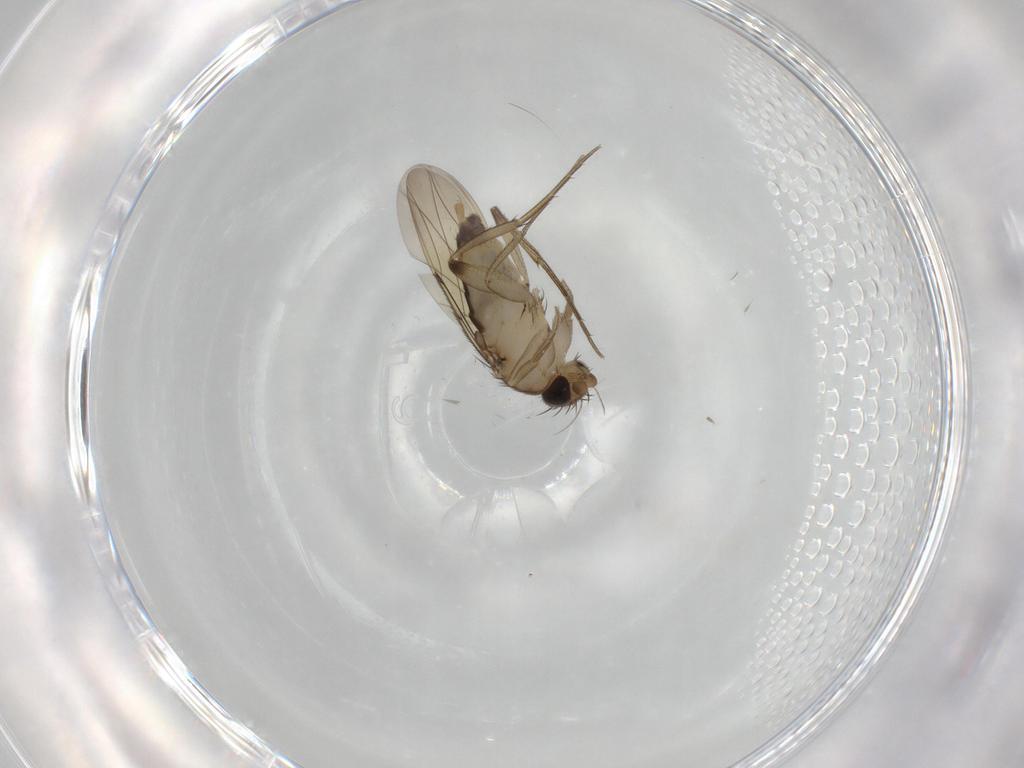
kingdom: Animalia
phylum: Arthropoda
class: Insecta
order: Diptera
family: Phoridae
